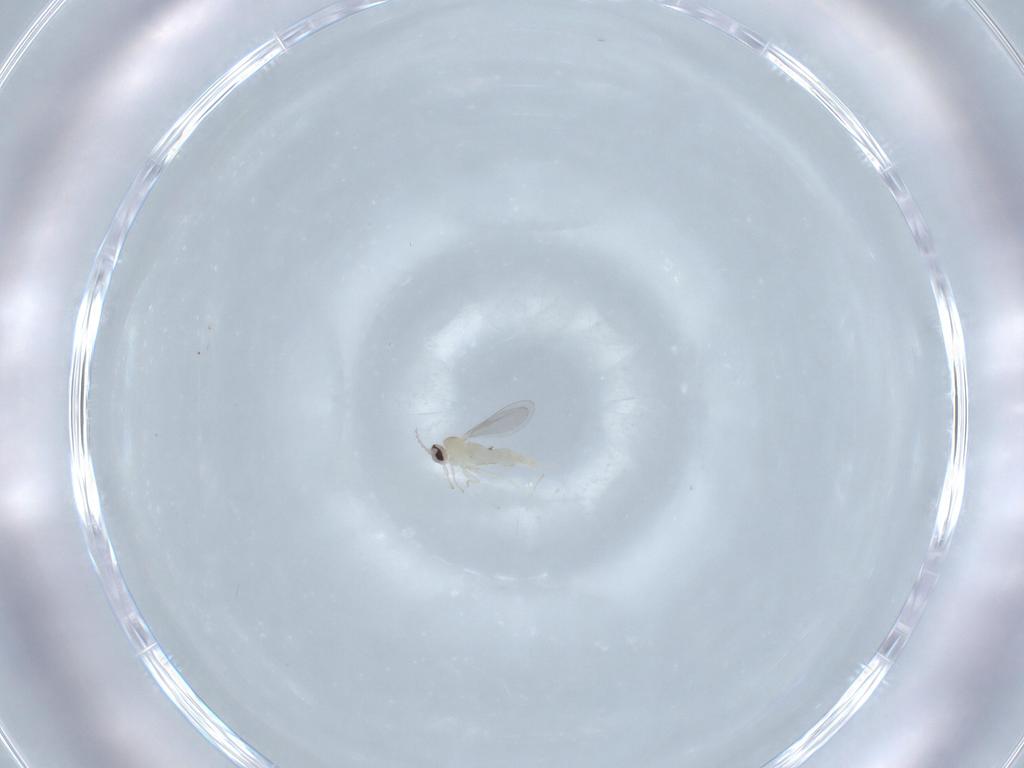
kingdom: Animalia
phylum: Arthropoda
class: Insecta
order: Diptera
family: Cecidomyiidae
